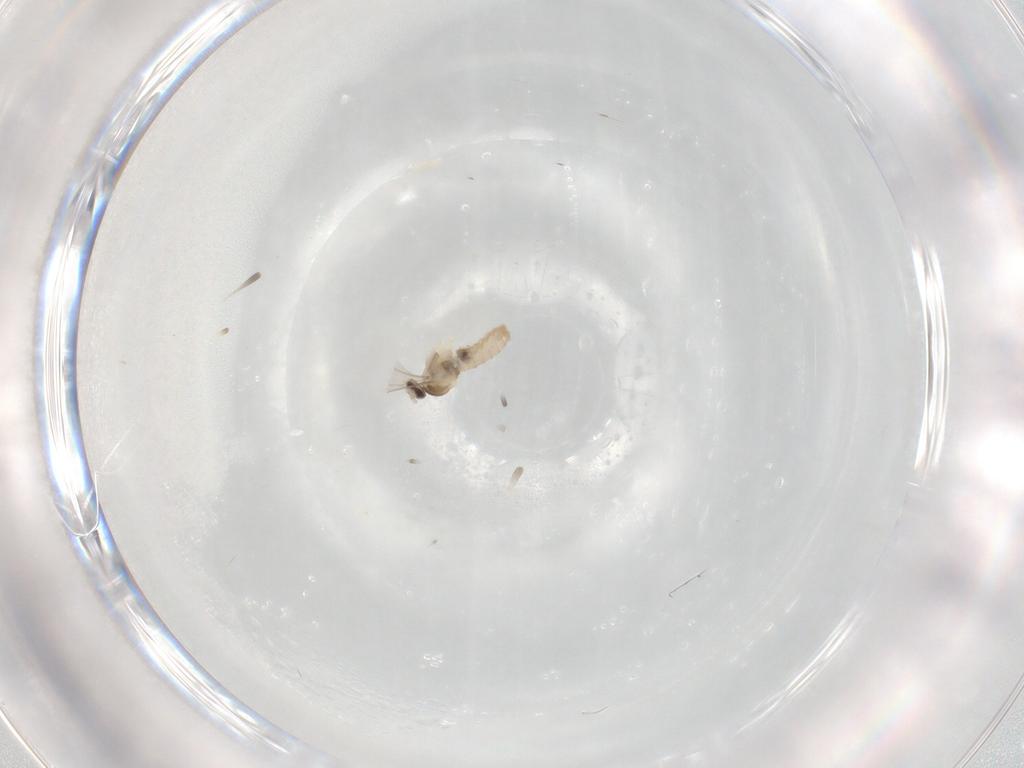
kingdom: Animalia
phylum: Arthropoda
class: Insecta
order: Diptera
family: Cecidomyiidae
